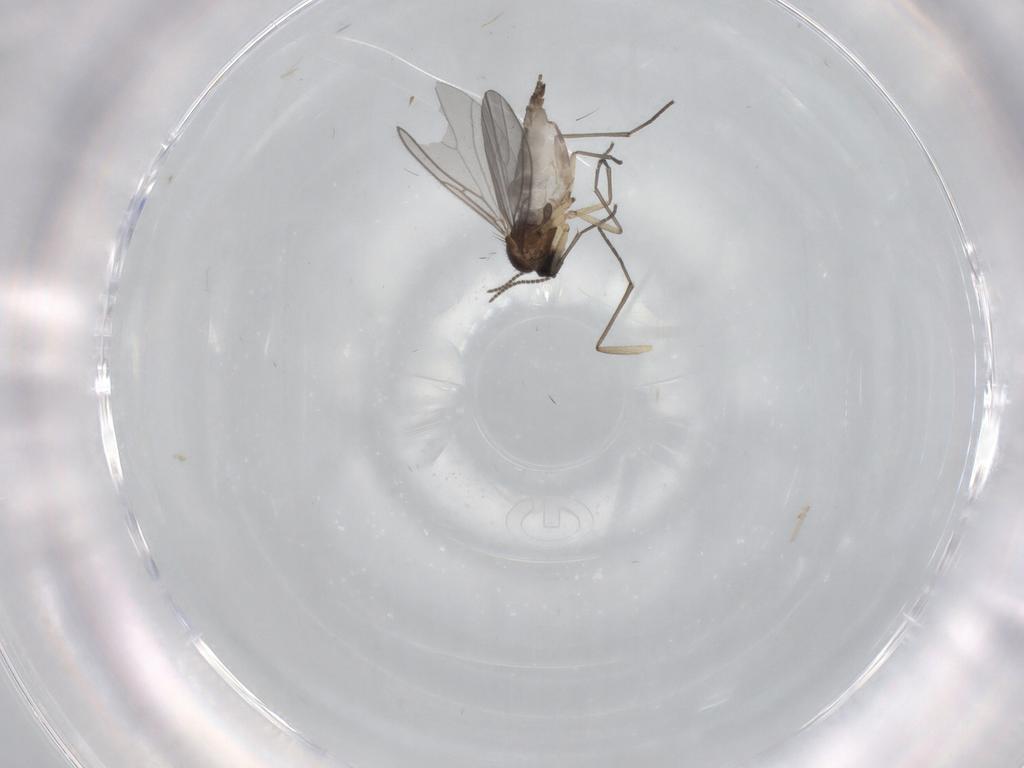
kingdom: Animalia
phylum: Arthropoda
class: Insecta
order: Diptera
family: Sciaridae
